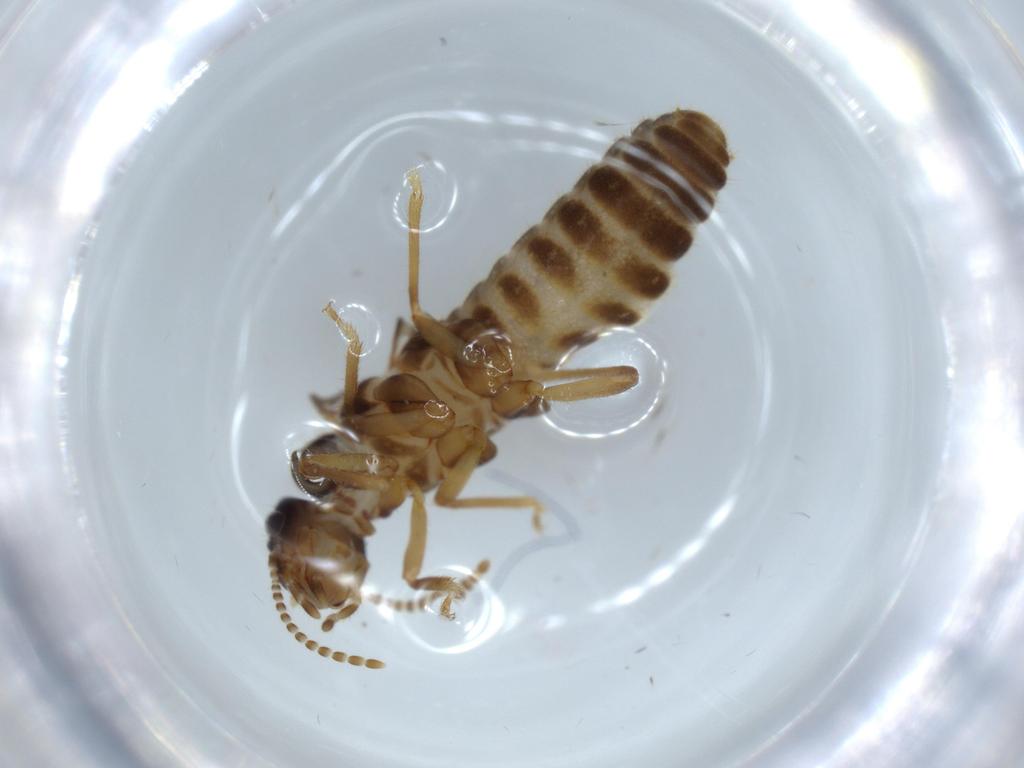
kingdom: Animalia
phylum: Arthropoda
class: Insecta
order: Blattodea
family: Termitidae
